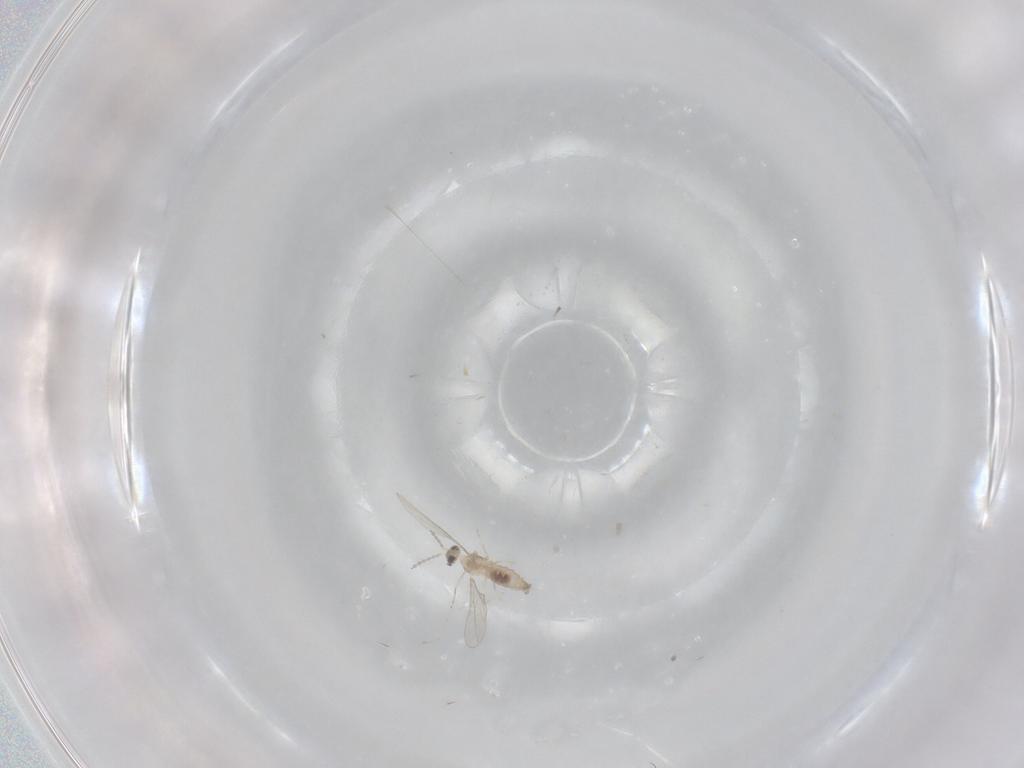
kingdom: Animalia
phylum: Arthropoda
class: Insecta
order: Diptera
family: Cecidomyiidae
